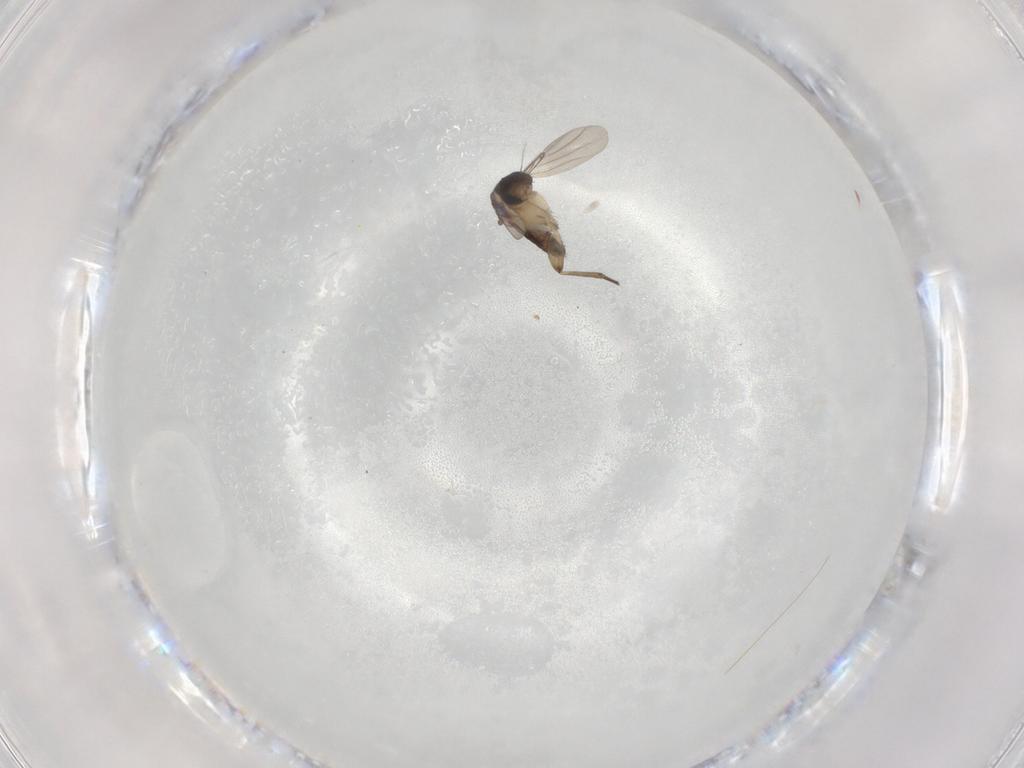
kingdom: Animalia
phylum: Arthropoda
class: Insecta
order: Diptera
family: Phoridae
